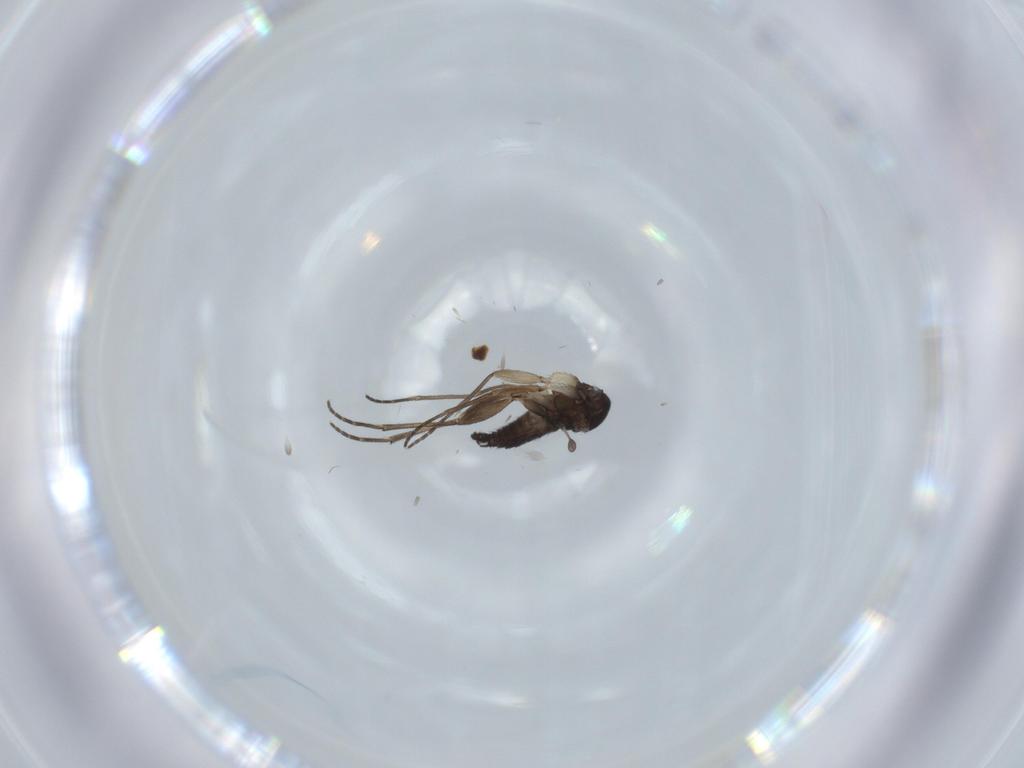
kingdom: Animalia
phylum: Arthropoda
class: Insecta
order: Diptera
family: Sciaridae
